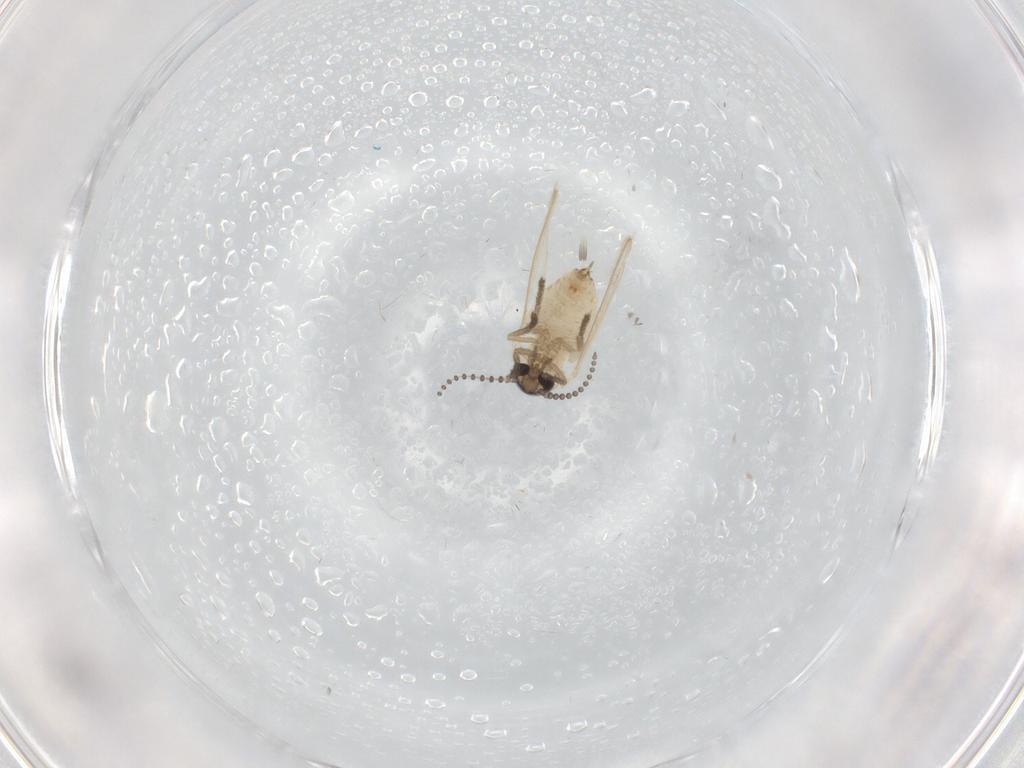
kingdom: Animalia
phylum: Arthropoda
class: Insecta
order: Diptera
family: Psychodidae
